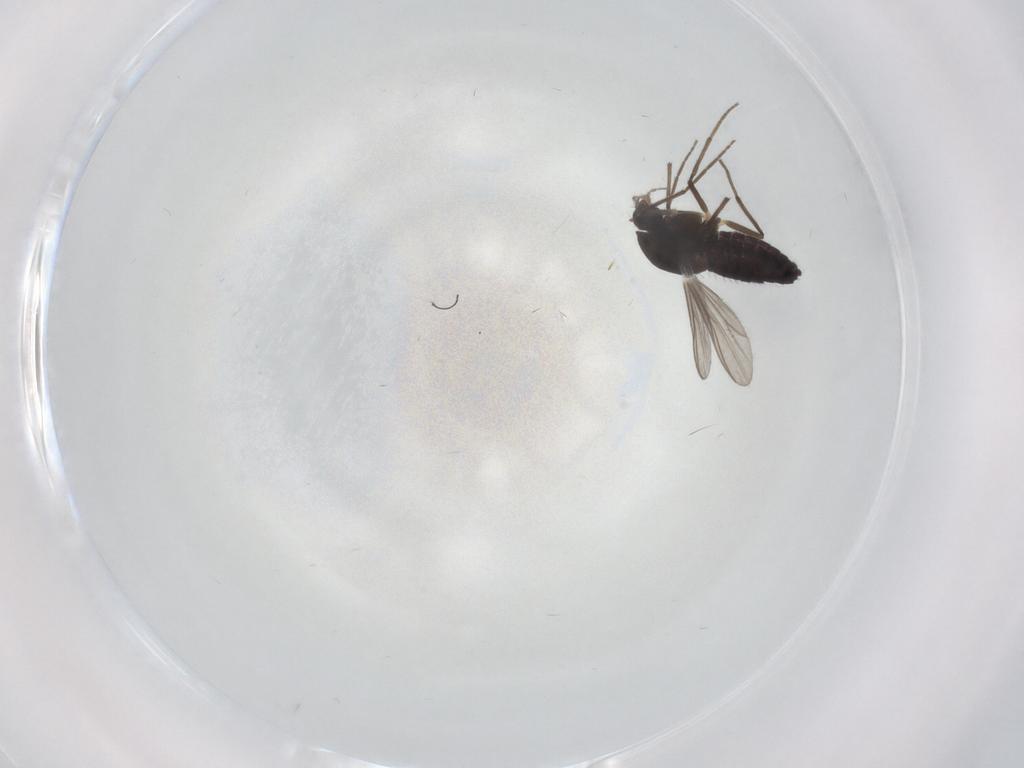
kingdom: Animalia
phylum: Arthropoda
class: Insecta
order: Diptera
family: Chironomidae
